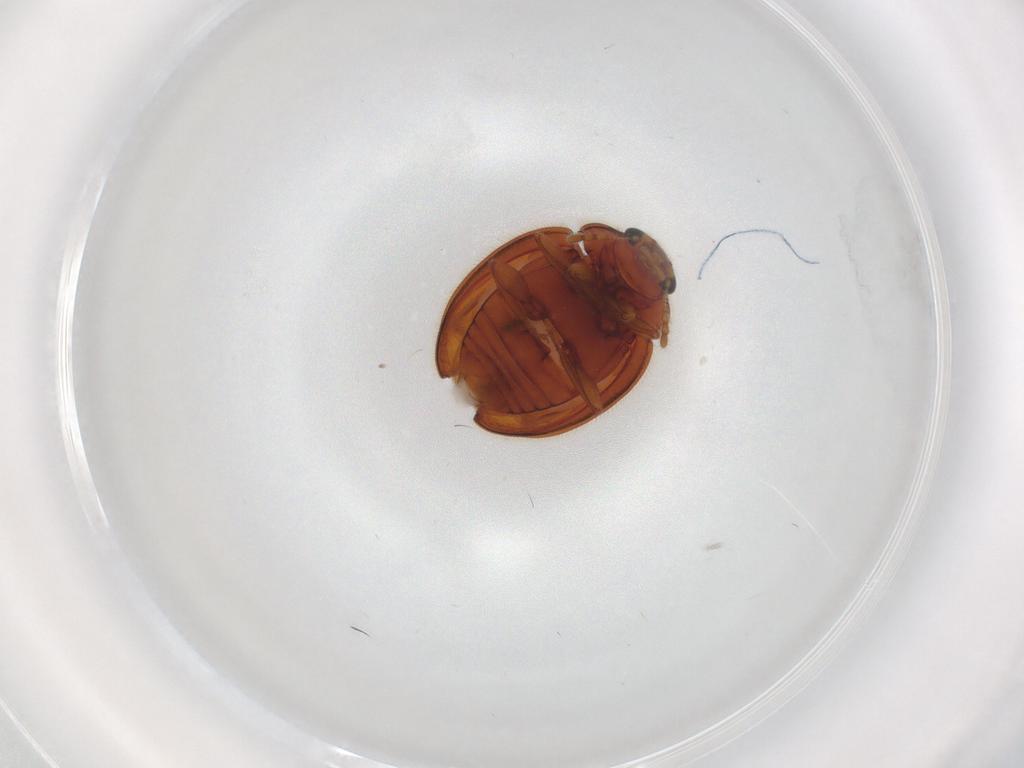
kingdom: Animalia
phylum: Arthropoda
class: Insecta
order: Coleoptera
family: Anamorphidae
